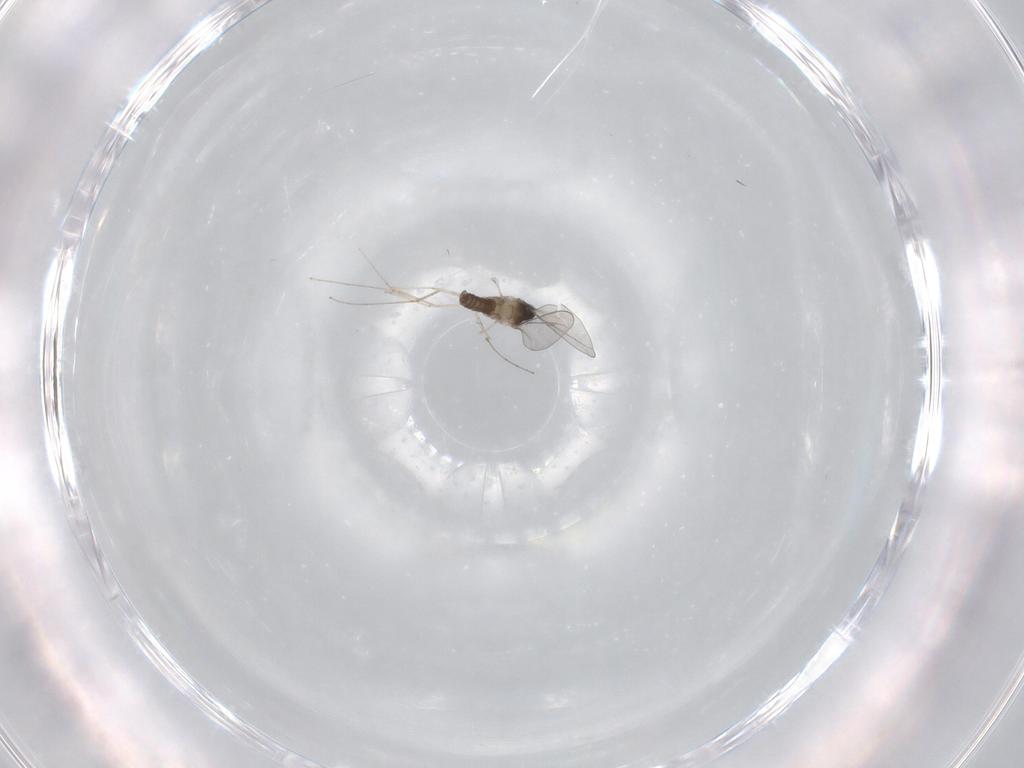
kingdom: Animalia
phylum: Arthropoda
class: Insecta
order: Diptera
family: Cecidomyiidae
